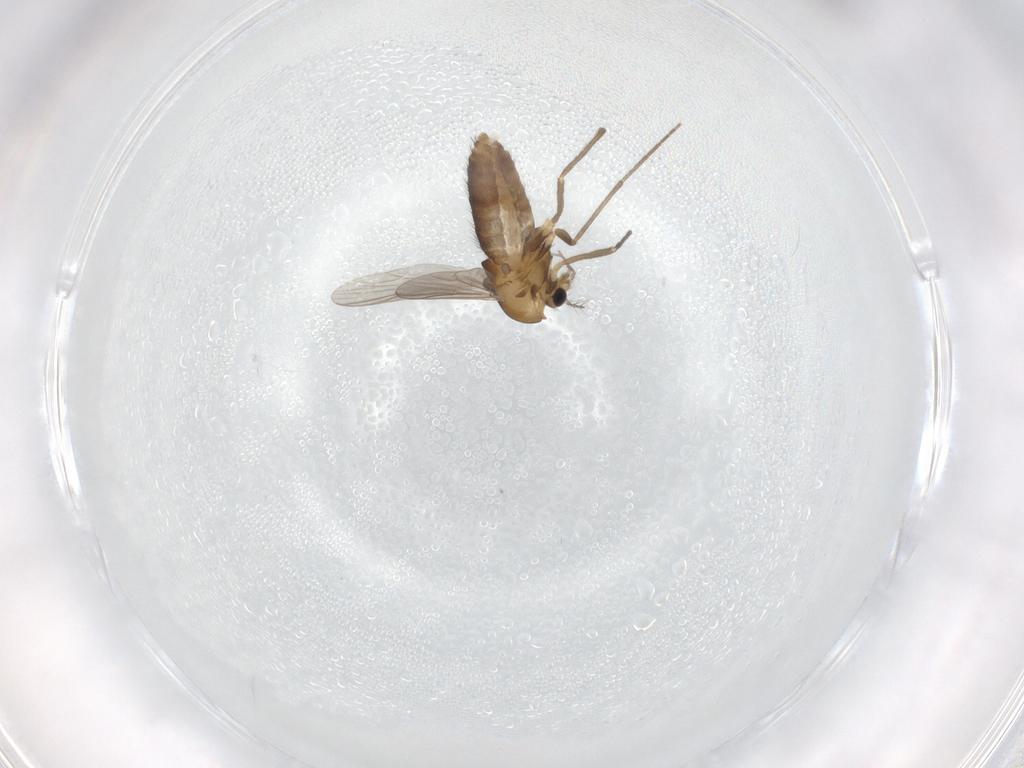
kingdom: Animalia
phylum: Arthropoda
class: Insecta
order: Diptera
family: Chironomidae
